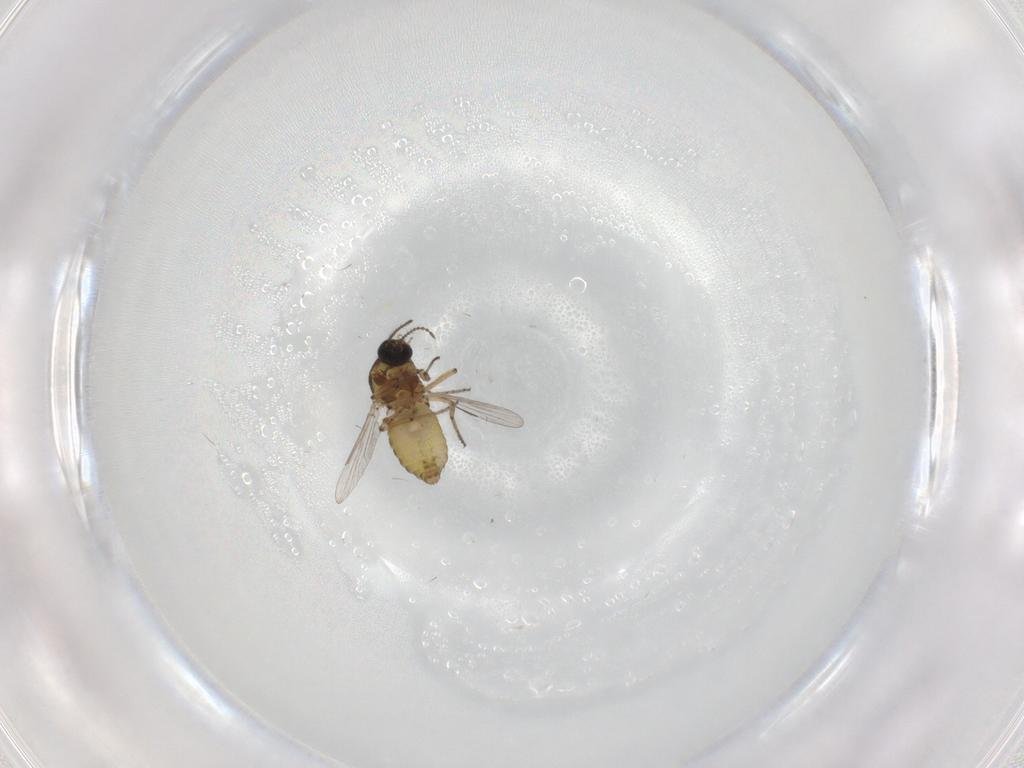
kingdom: Animalia
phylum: Arthropoda
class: Insecta
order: Diptera
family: Ceratopogonidae
